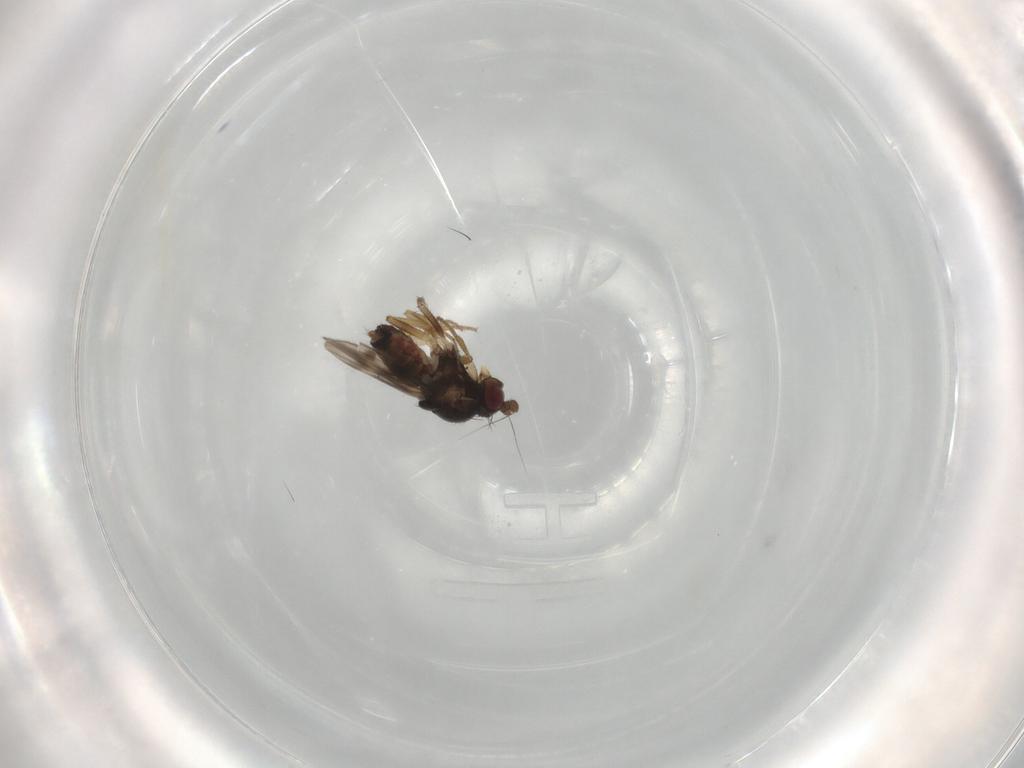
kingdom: Animalia
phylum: Arthropoda
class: Insecta
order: Diptera
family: Sphaeroceridae
